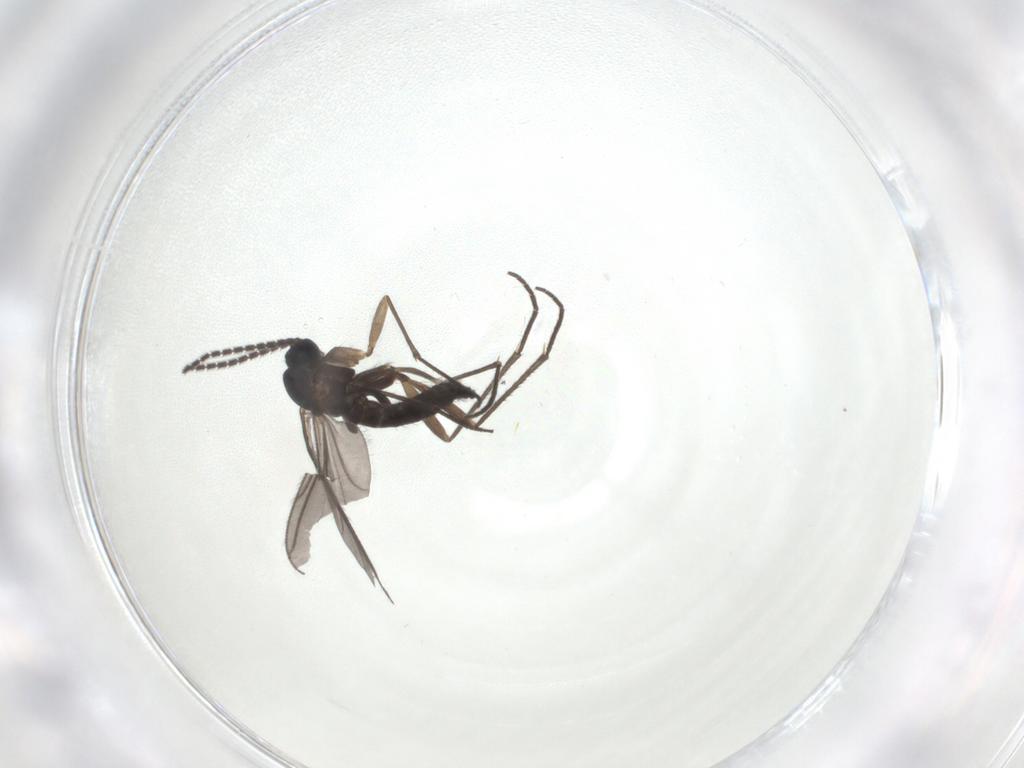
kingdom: Animalia
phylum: Arthropoda
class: Insecta
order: Diptera
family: Sciaridae
